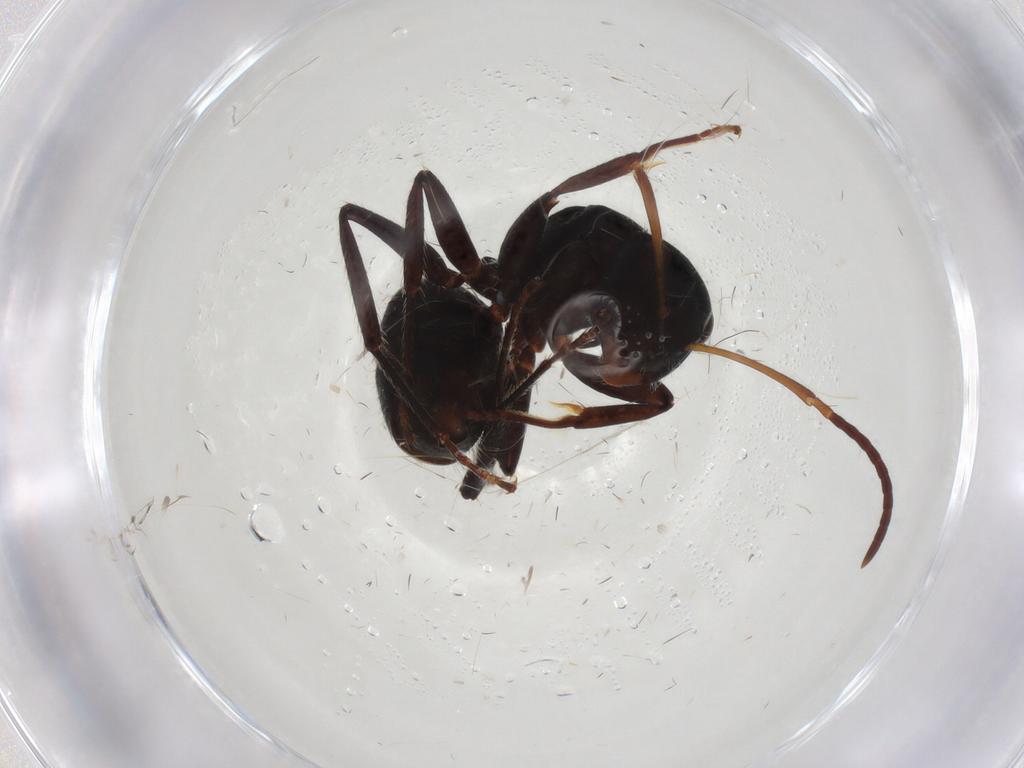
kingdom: Animalia
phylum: Arthropoda
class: Insecta
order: Hymenoptera
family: Formicidae
